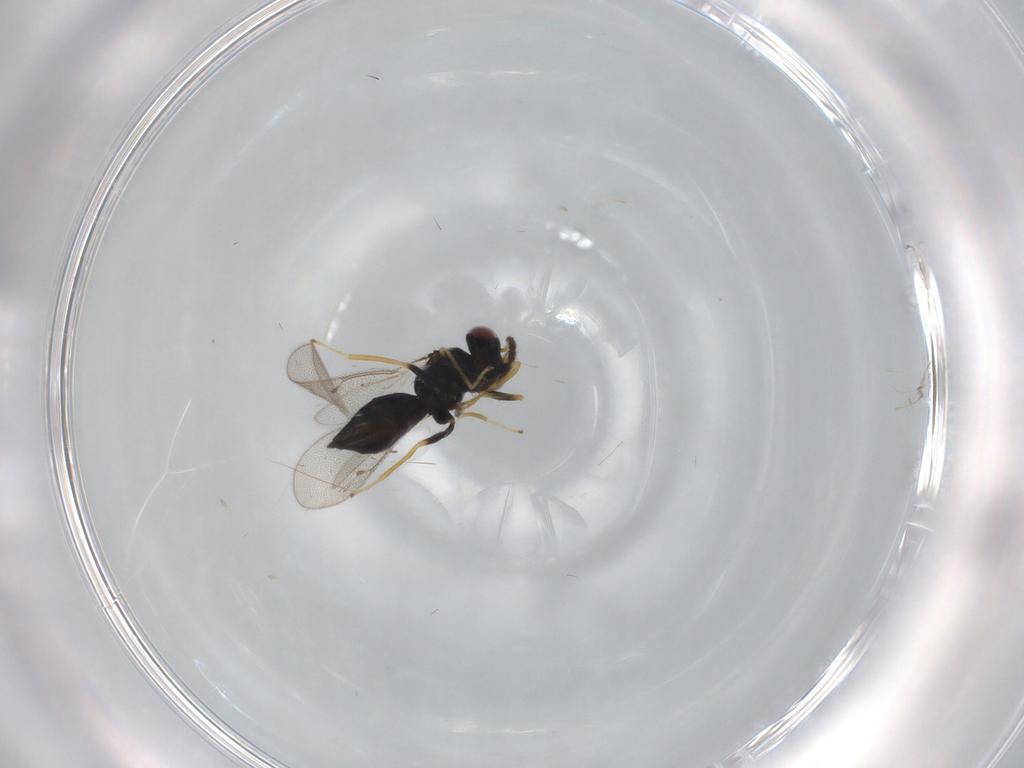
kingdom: Animalia
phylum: Arthropoda
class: Insecta
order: Hymenoptera
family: Eulophidae
